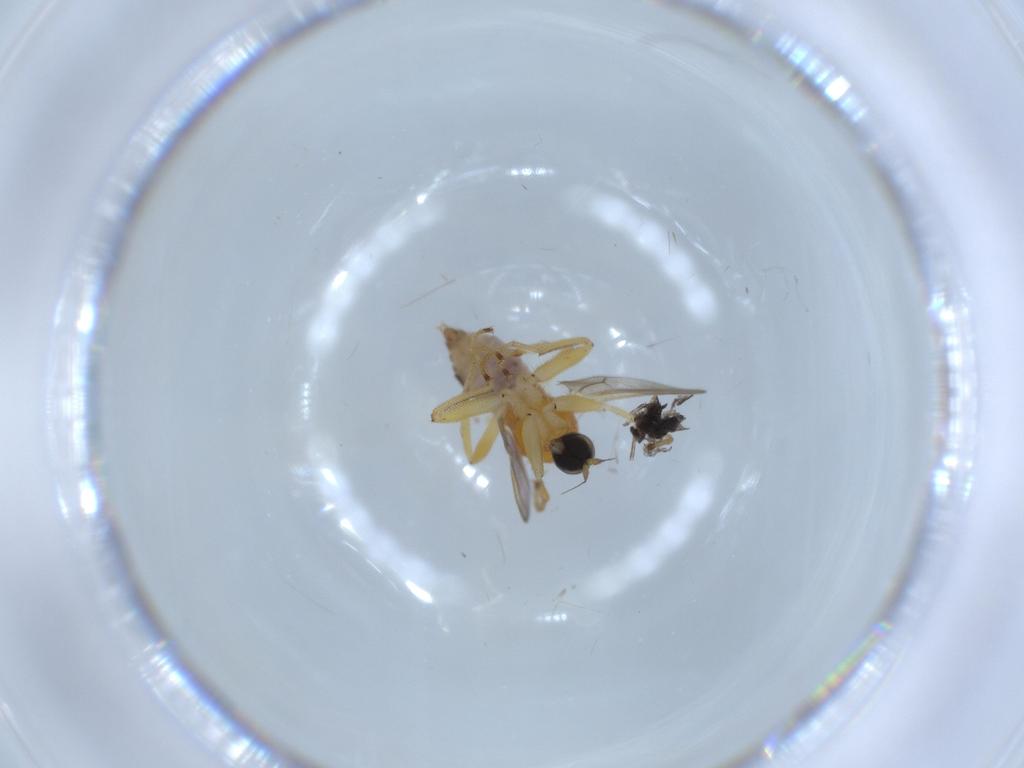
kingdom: Animalia
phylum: Arthropoda
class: Insecta
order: Diptera
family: Hybotidae
